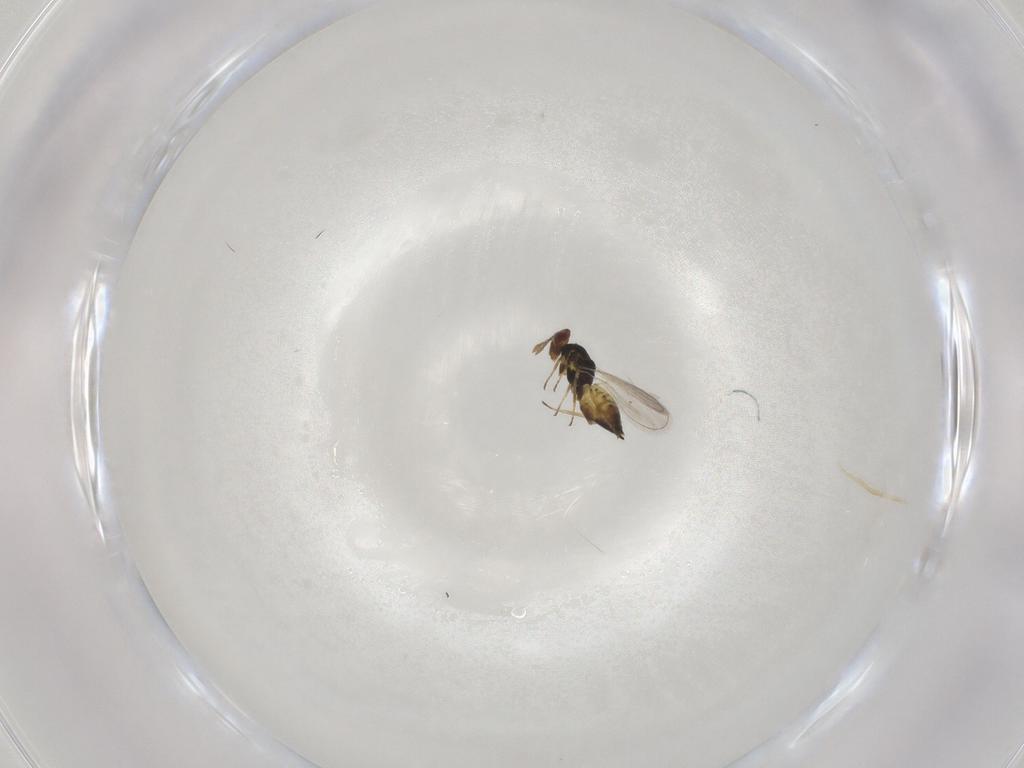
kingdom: Animalia
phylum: Arthropoda
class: Insecta
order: Hymenoptera
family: Eulophidae
